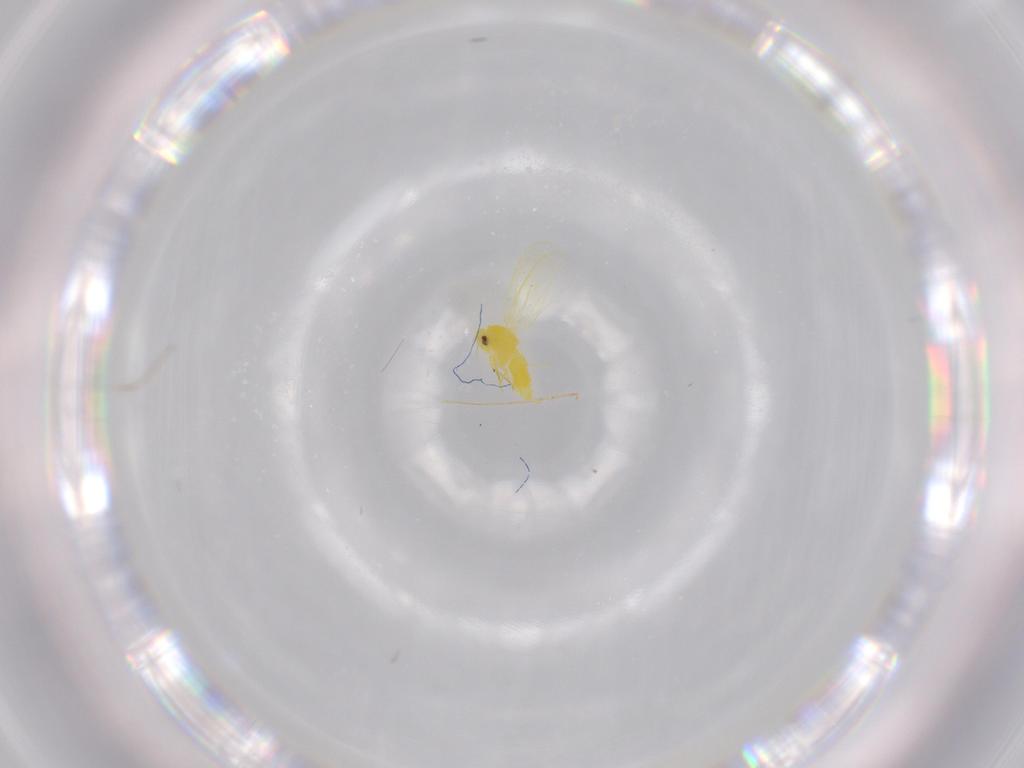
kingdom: Animalia
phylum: Arthropoda
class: Insecta
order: Hemiptera
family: Aleyrodidae
